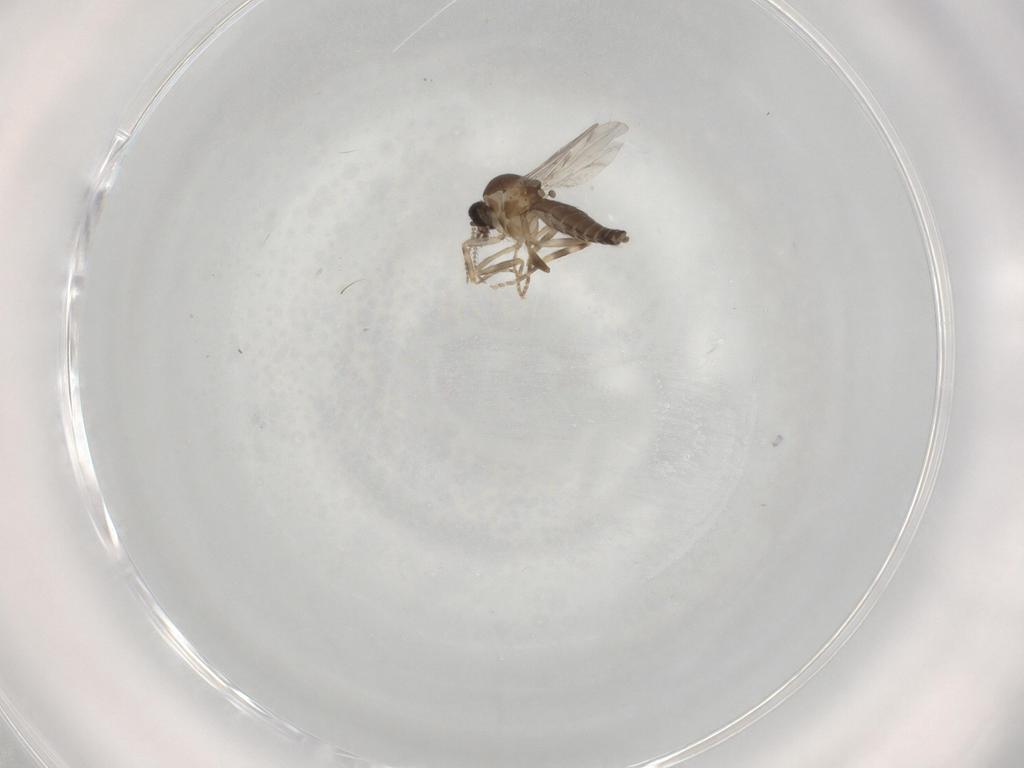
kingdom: Animalia
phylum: Arthropoda
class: Insecta
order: Diptera
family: Ceratopogonidae
